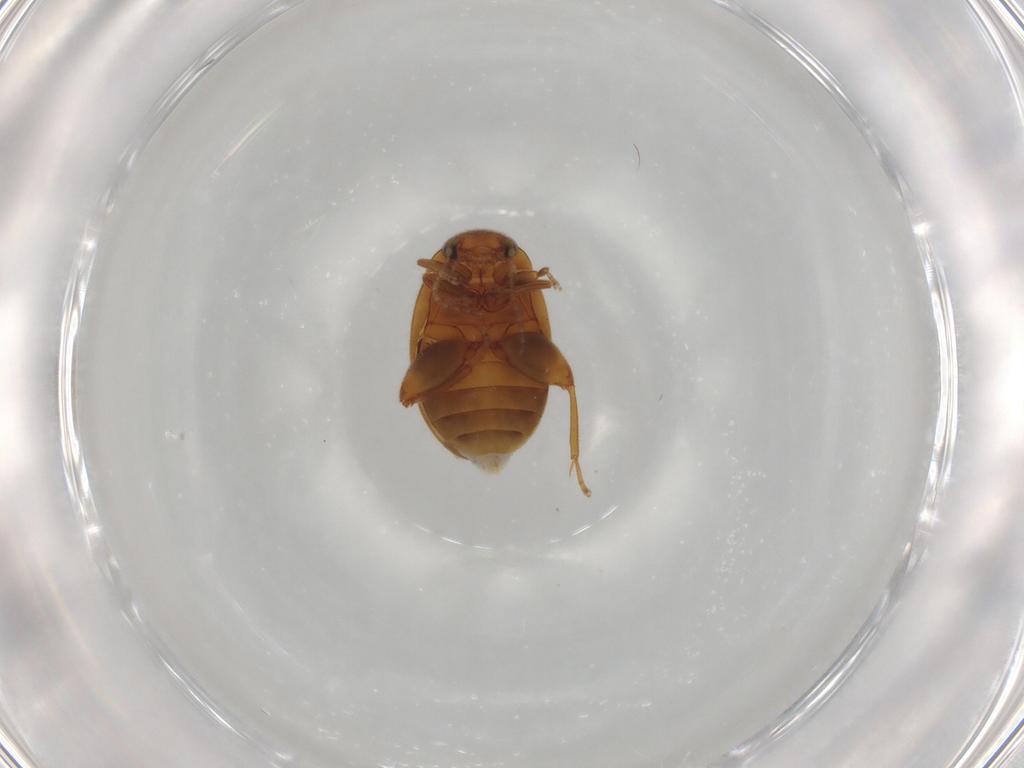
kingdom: Animalia
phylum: Arthropoda
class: Insecta
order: Coleoptera
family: Scirtidae
